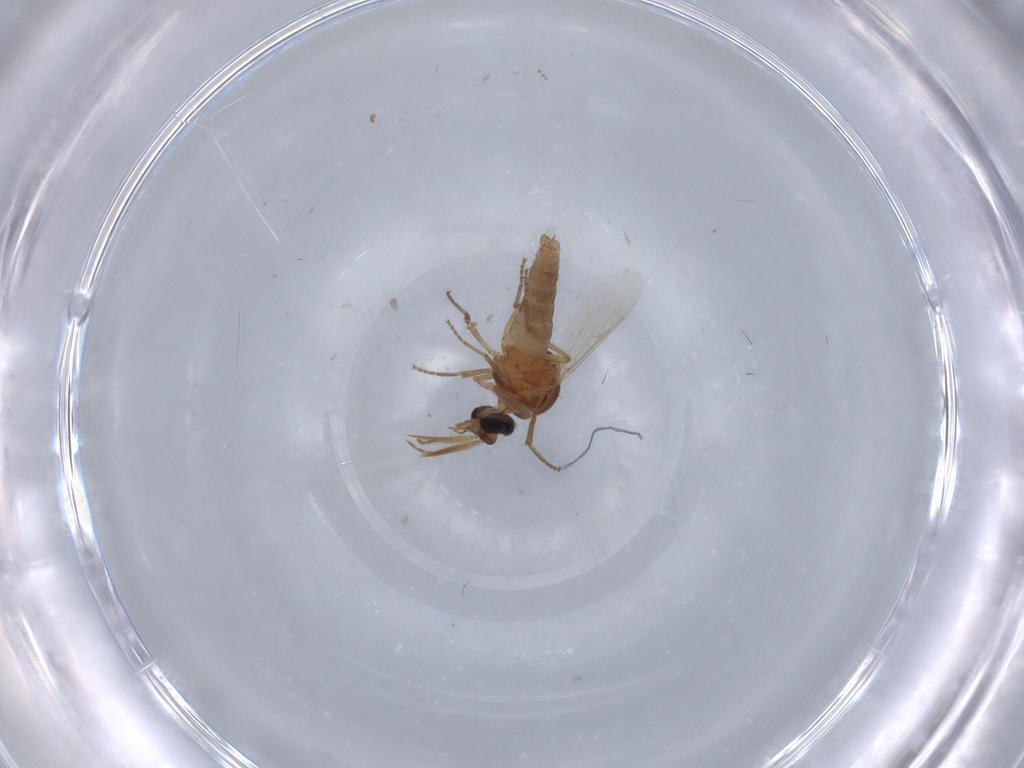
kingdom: Animalia
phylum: Arthropoda
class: Insecta
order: Diptera
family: Ceratopogonidae
